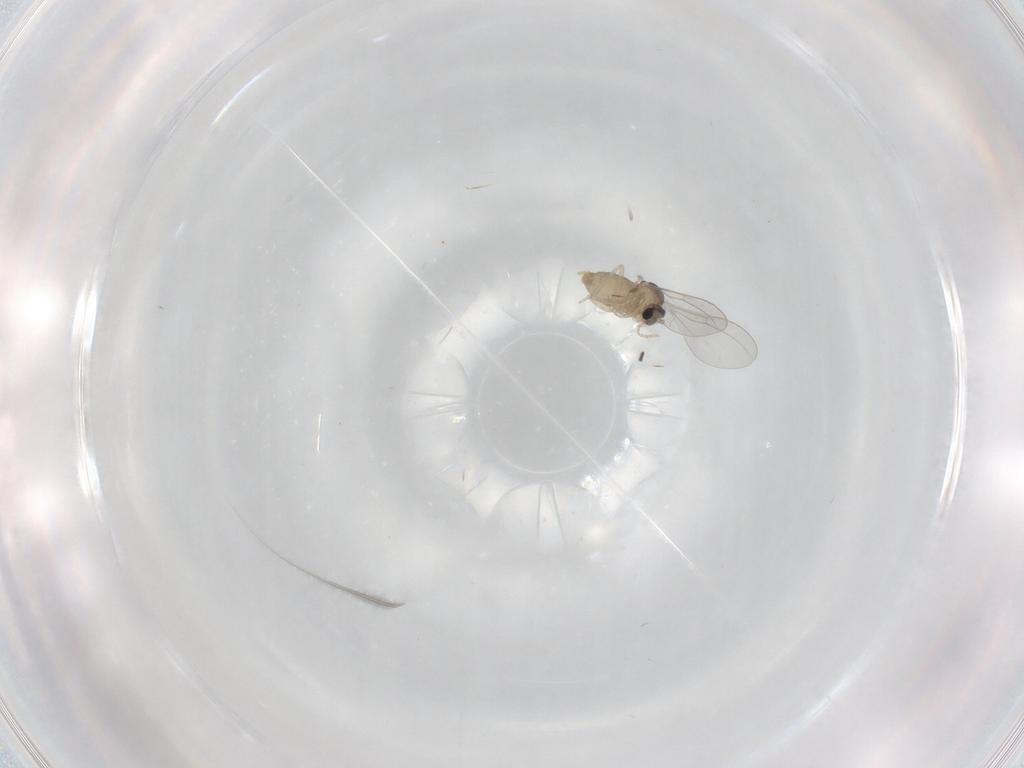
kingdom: Animalia
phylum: Arthropoda
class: Insecta
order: Diptera
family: Cecidomyiidae
